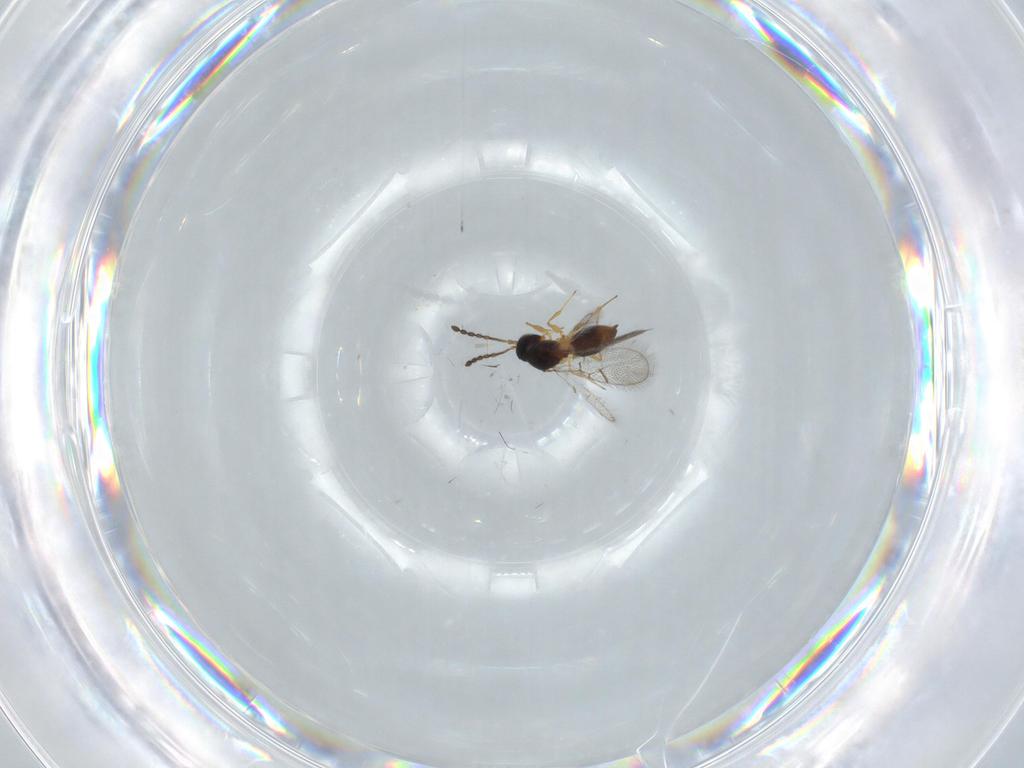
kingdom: Animalia
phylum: Arthropoda
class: Insecta
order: Hymenoptera
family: Figitidae
